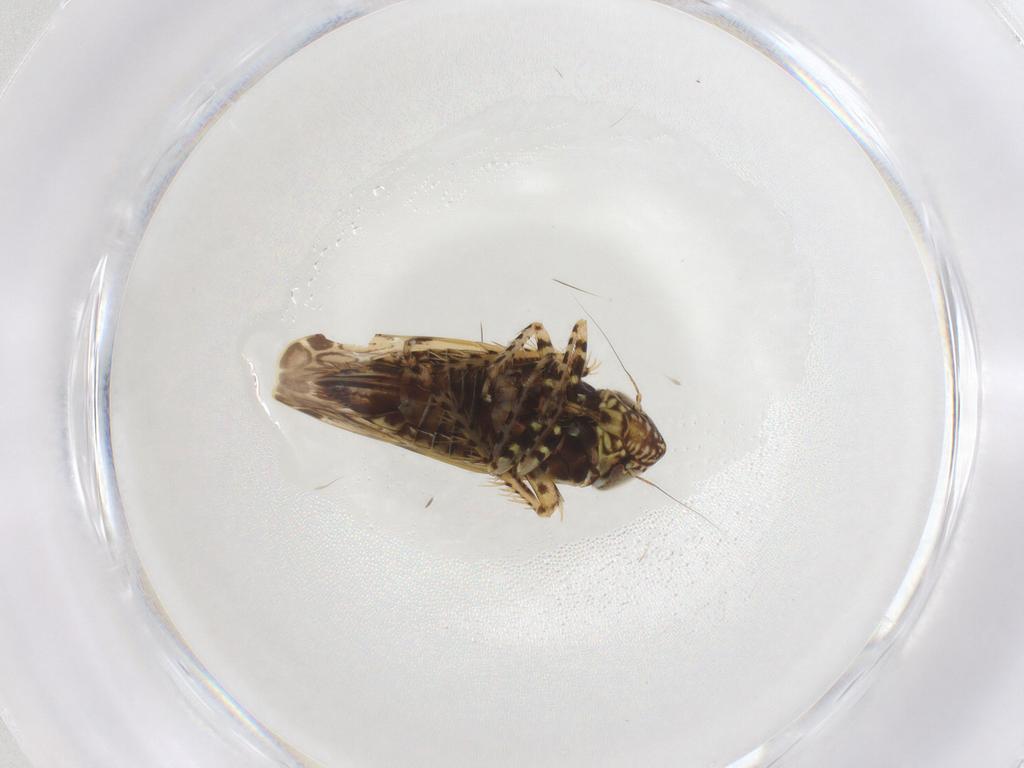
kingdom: Animalia
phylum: Arthropoda
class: Insecta
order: Hemiptera
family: Cicadellidae
